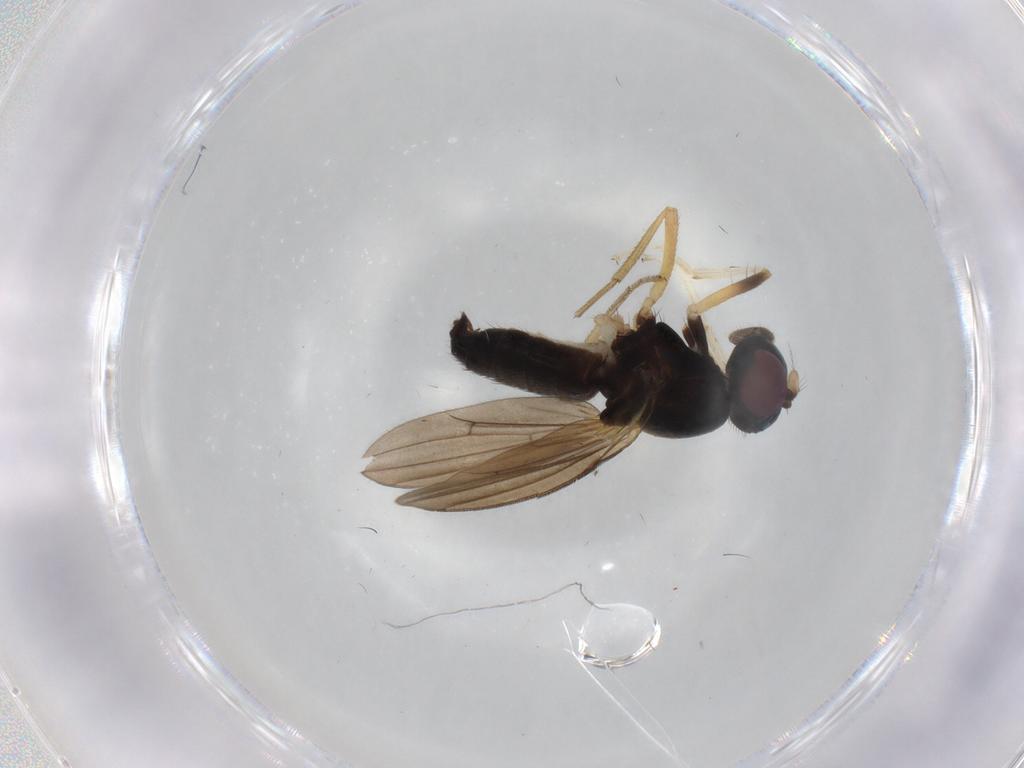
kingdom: Animalia
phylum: Arthropoda
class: Insecta
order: Diptera
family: Lauxaniidae
